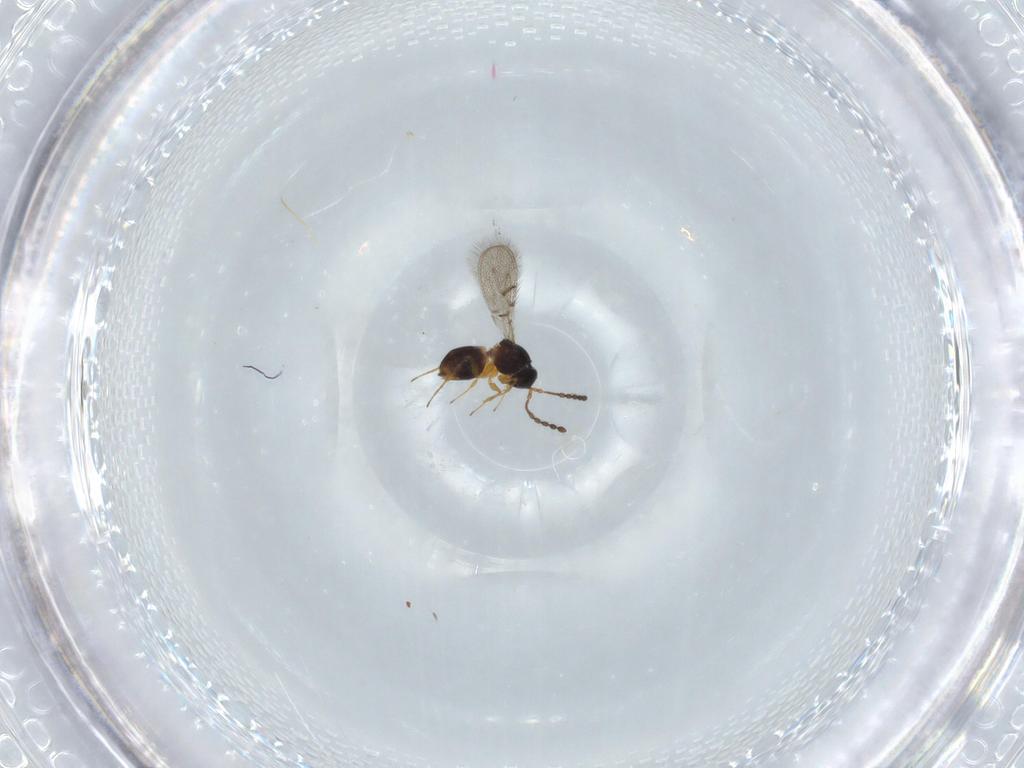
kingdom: Animalia
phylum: Arthropoda
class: Insecta
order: Hymenoptera
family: Figitidae
